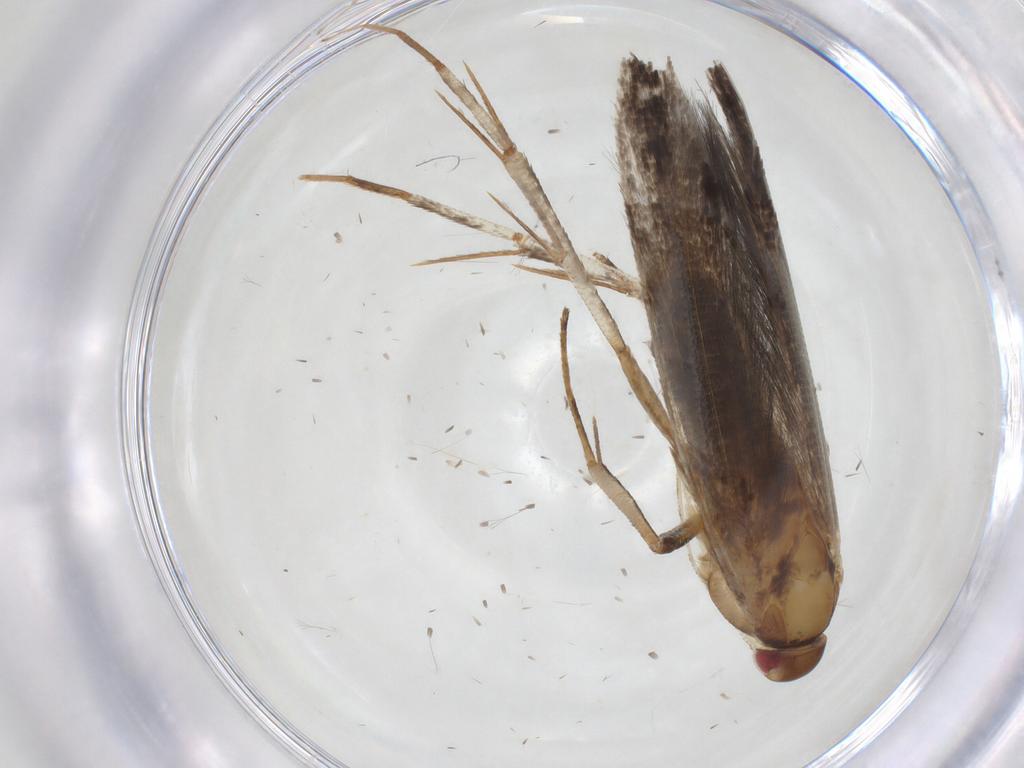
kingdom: Animalia
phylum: Arthropoda
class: Insecta
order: Lepidoptera
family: Cosmopterigidae
